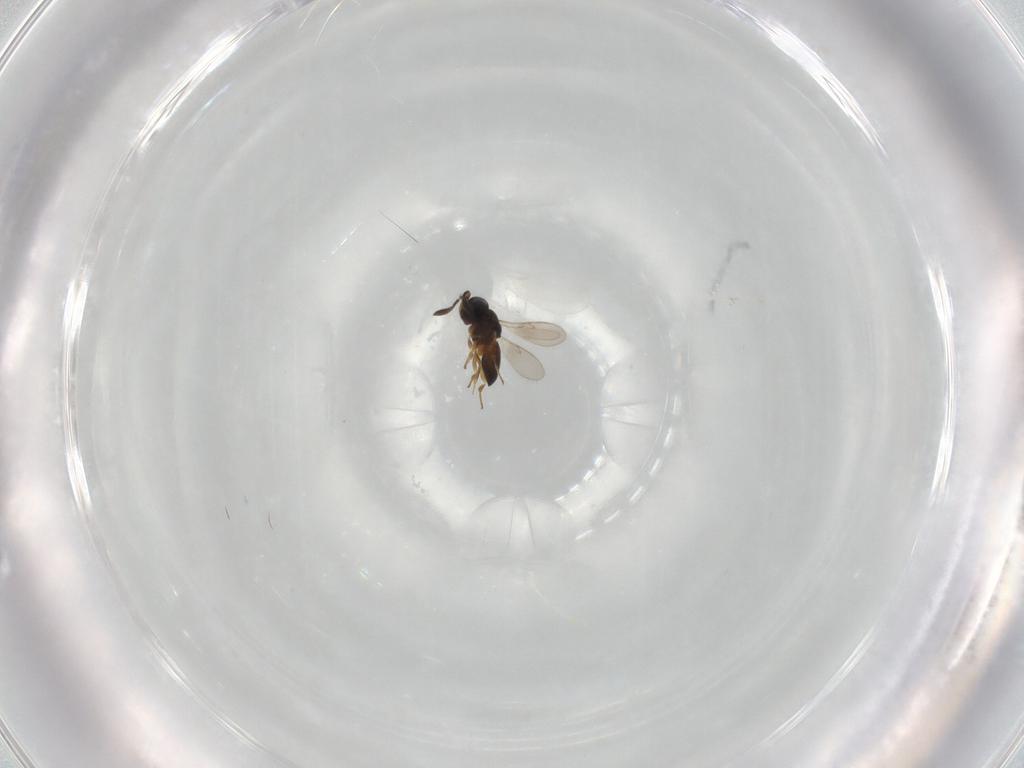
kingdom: Animalia
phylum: Arthropoda
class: Insecta
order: Hymenoptera
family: Scelionidae
